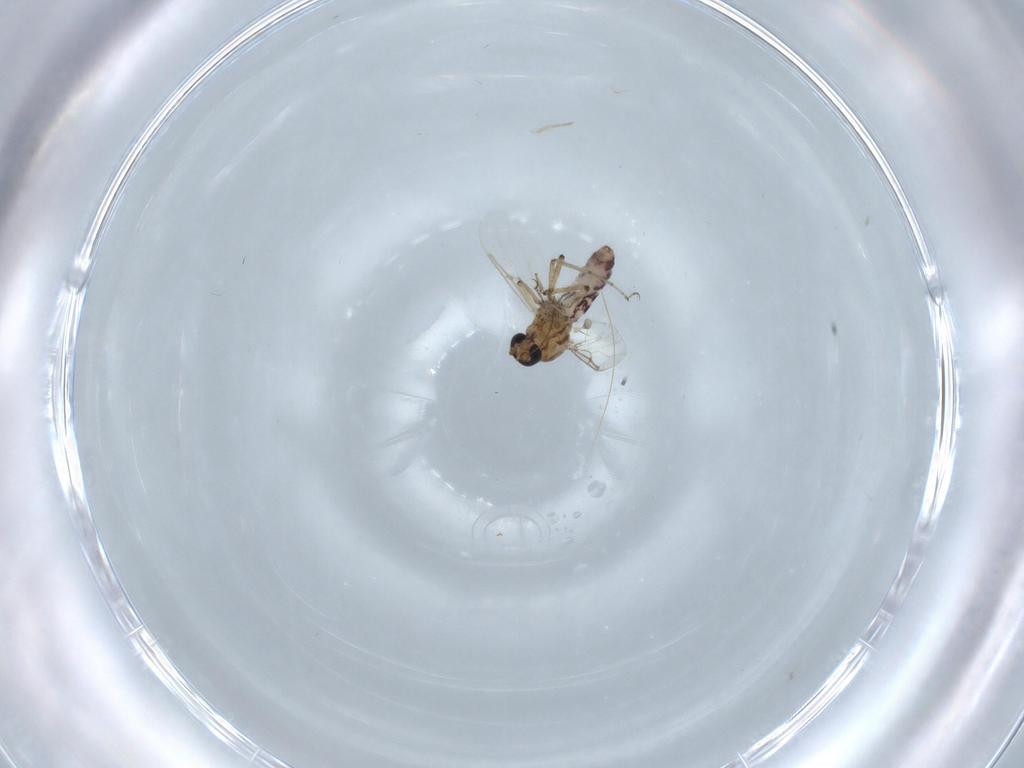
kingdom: Animalia
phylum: Arthropoda
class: Insecta
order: Diptera
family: Ceratopogonidae
